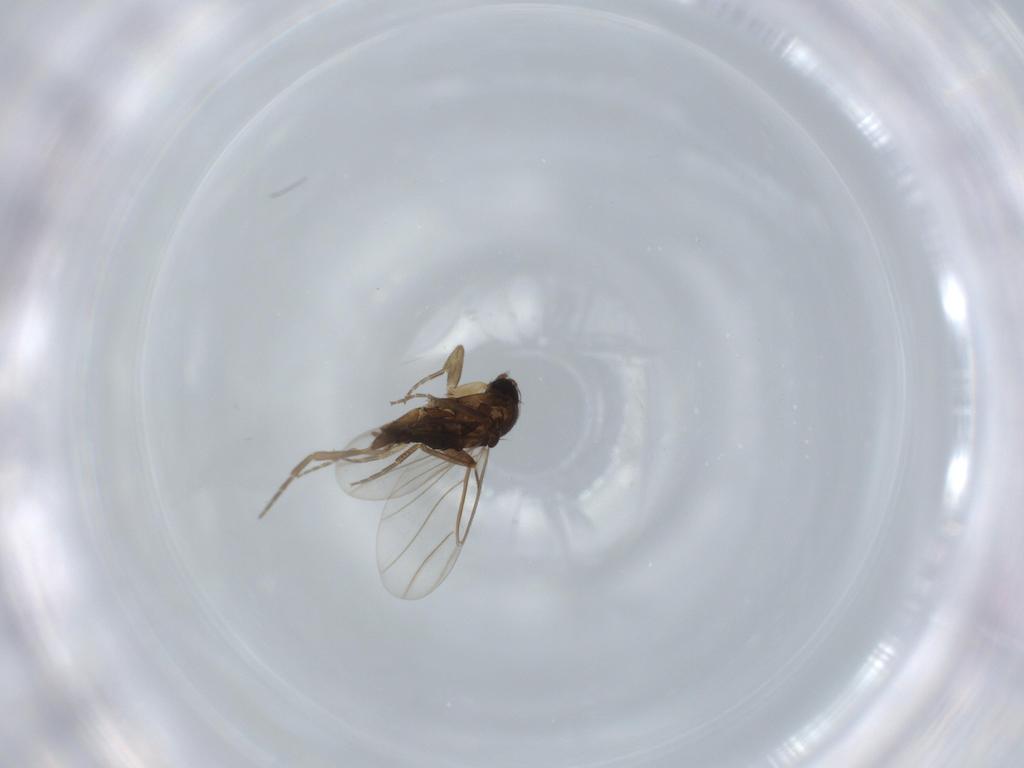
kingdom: Animalia
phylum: Arthropoda
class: Insecta
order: Diptera
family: Phoridae
